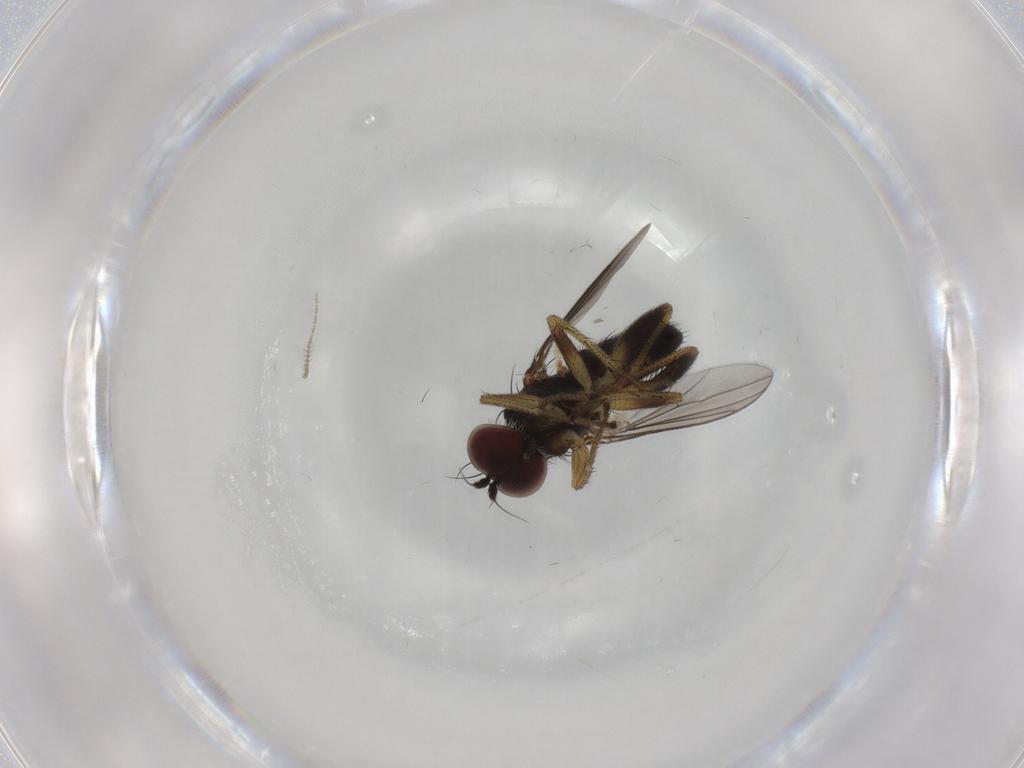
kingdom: Animalia
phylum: Arthropoda
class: Insecta
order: Diptera
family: Dolichopodidae
